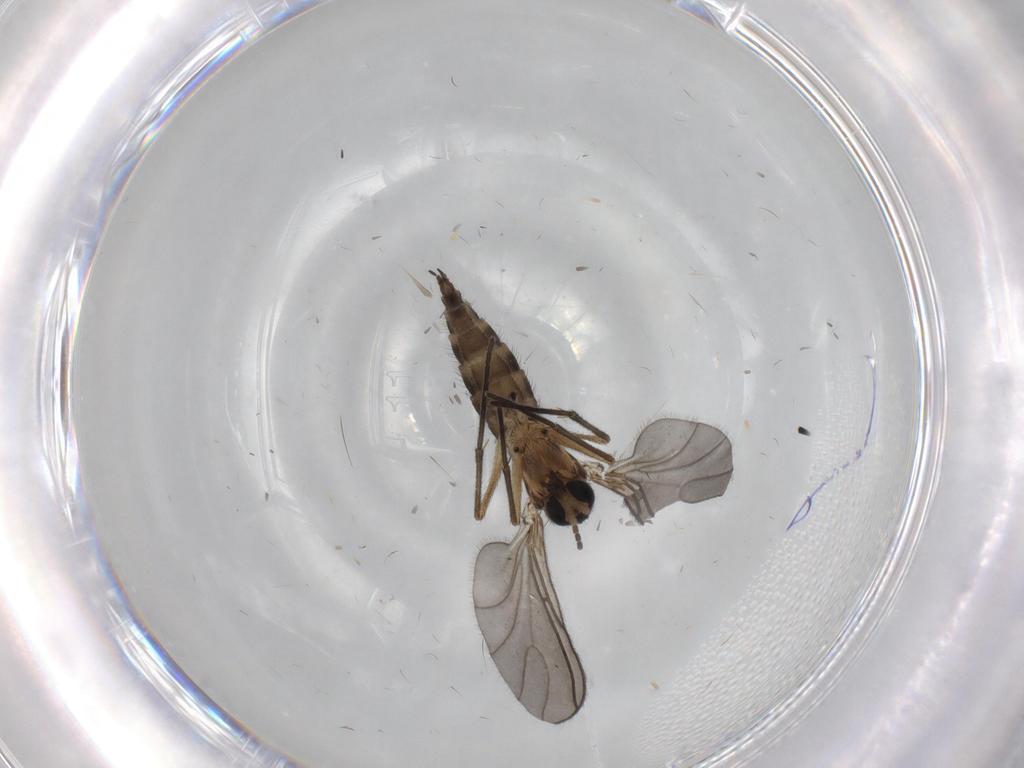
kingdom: Animalia
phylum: Arthropoda
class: Insecta
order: Diptera
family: Sciaridae
